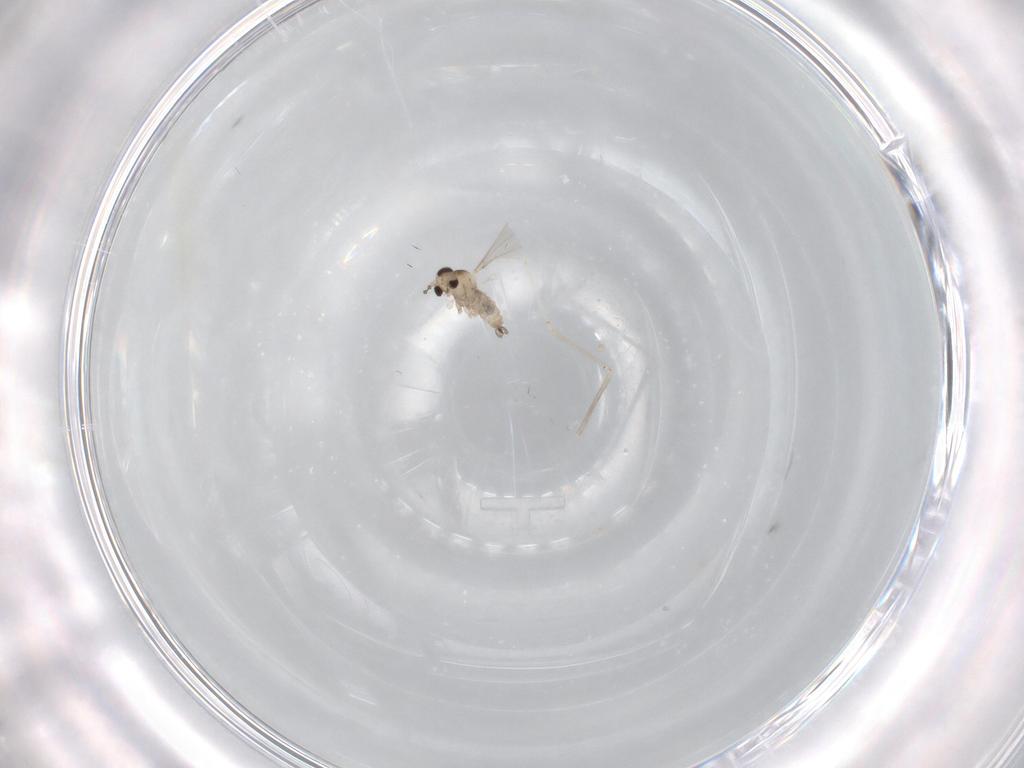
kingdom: Animalia
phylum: Arthropoda
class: Insecta
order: Diptera
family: Cecidomyiidae
